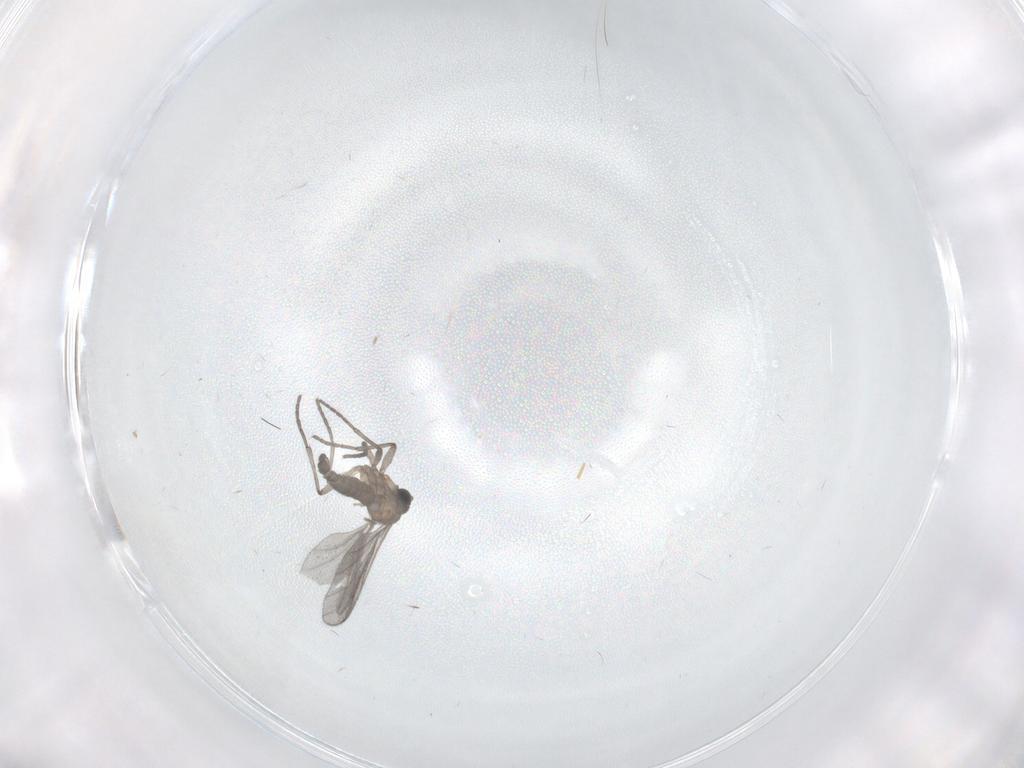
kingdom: Animalia
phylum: Arthropoda
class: Insecta
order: Diptera
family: Sciaridae
